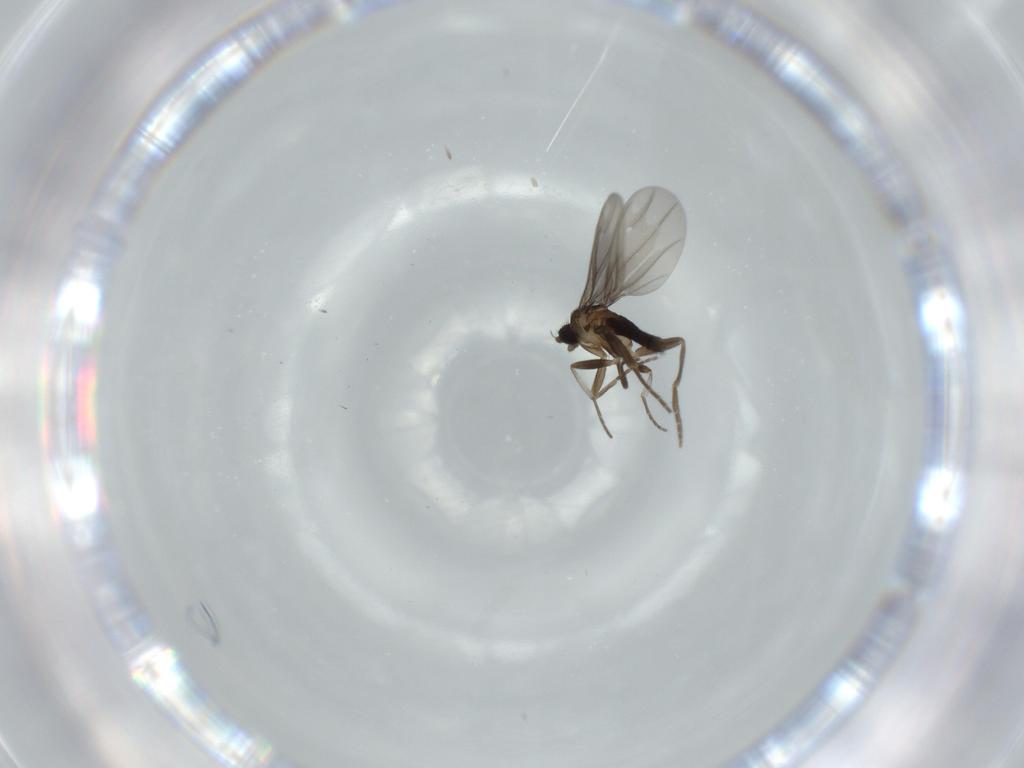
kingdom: Animalia
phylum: Arthropoda
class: Insecta
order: Diptera
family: Phoridae
